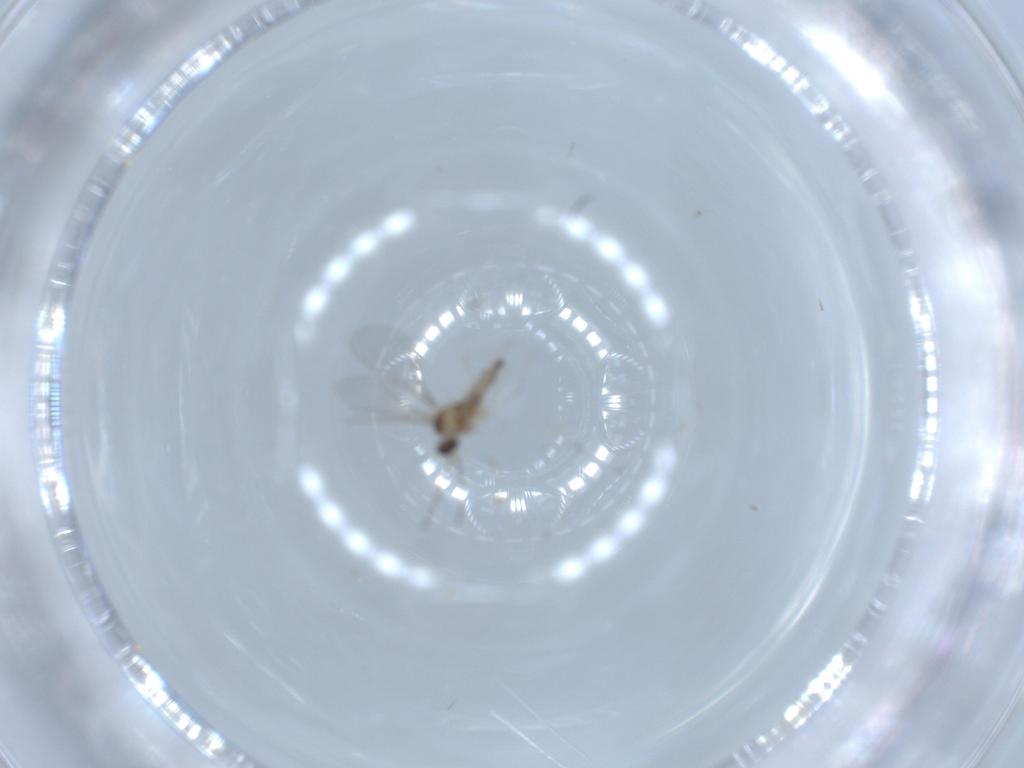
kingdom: Animalia
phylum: Arthropoda
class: Insecta
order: Diptera
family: Cecidomyiidae
